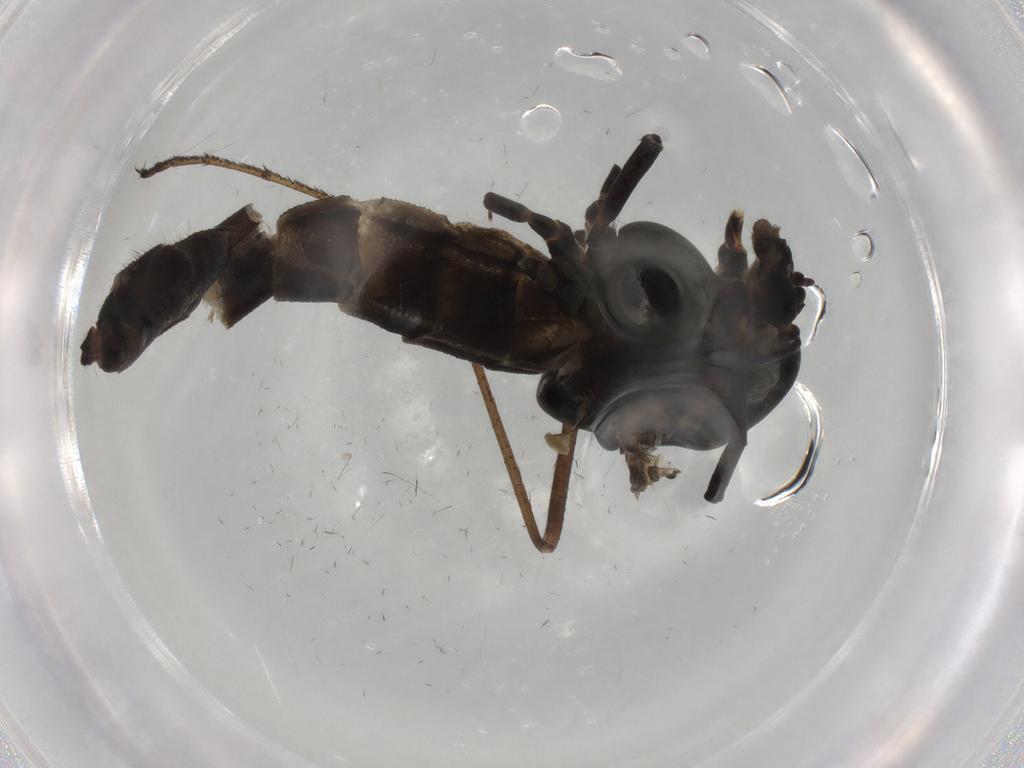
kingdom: Animalia
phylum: Arthropoda
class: Insecta
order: Diptera
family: Chironomidae
